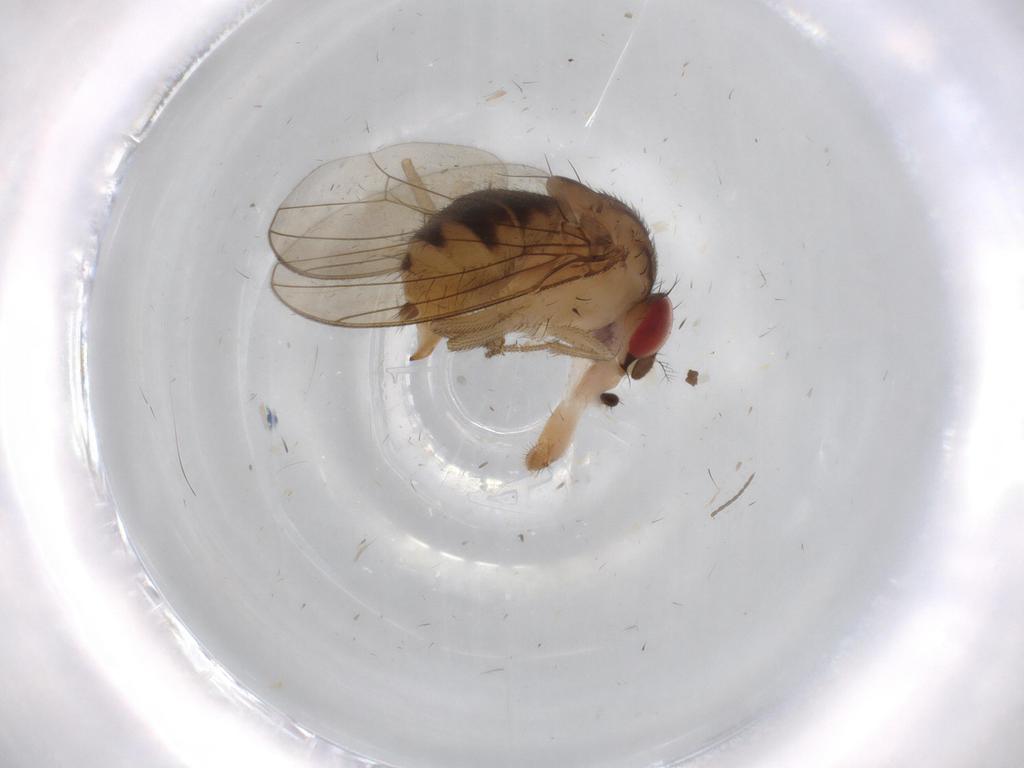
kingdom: Animalia
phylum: Arthropoda
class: Insecta
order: Diptera
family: Drosophilidae
